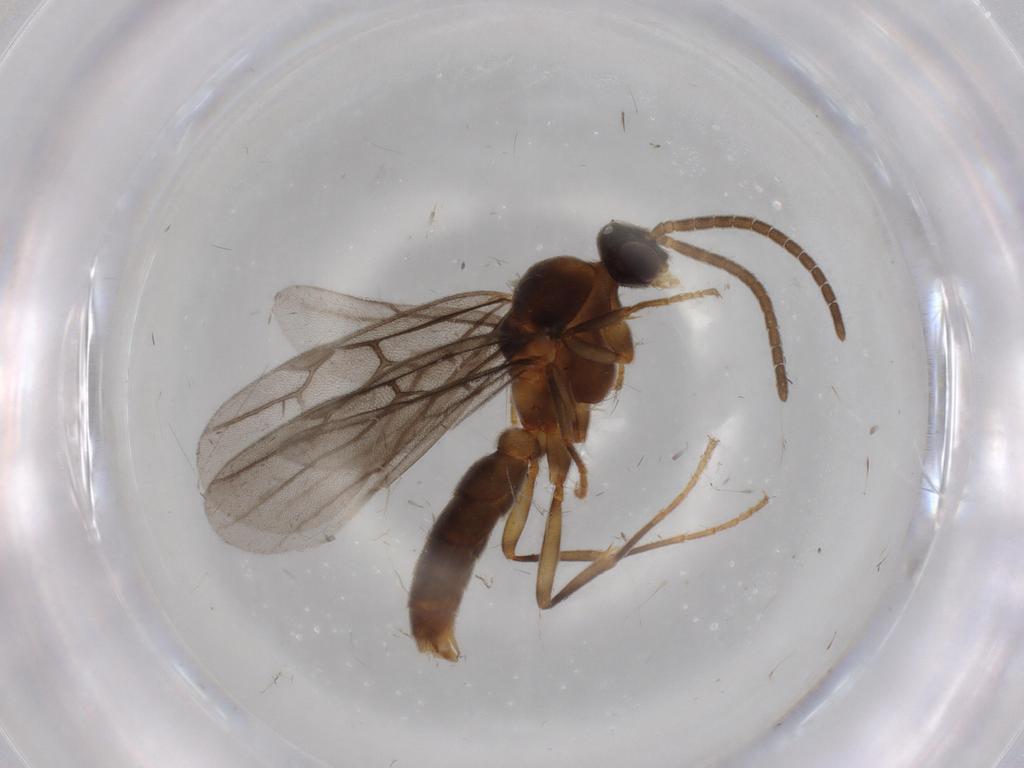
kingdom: Animalia
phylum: Arthropoda
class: Insecta
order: Hymenoptera
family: Formicidae
